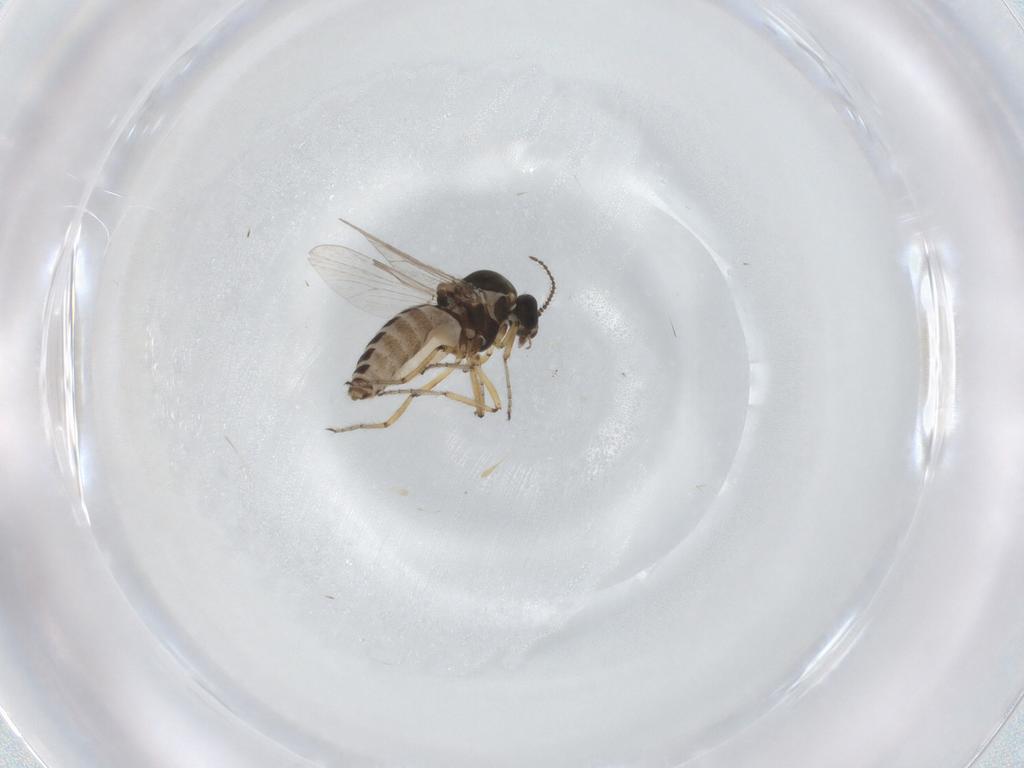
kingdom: Animalia
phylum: Arthropoda
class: Insecta
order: Diptera
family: Ceratopogonidae
